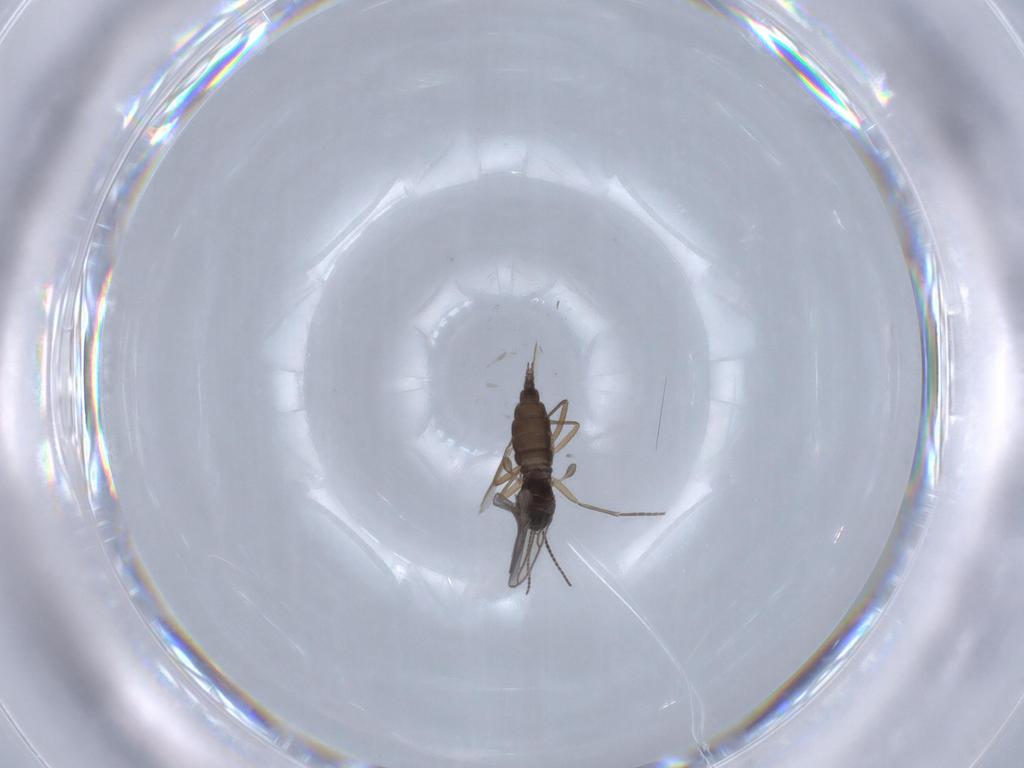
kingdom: Animalia
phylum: Arthropoda
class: Insecta
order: Diptera
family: Sciaridae
